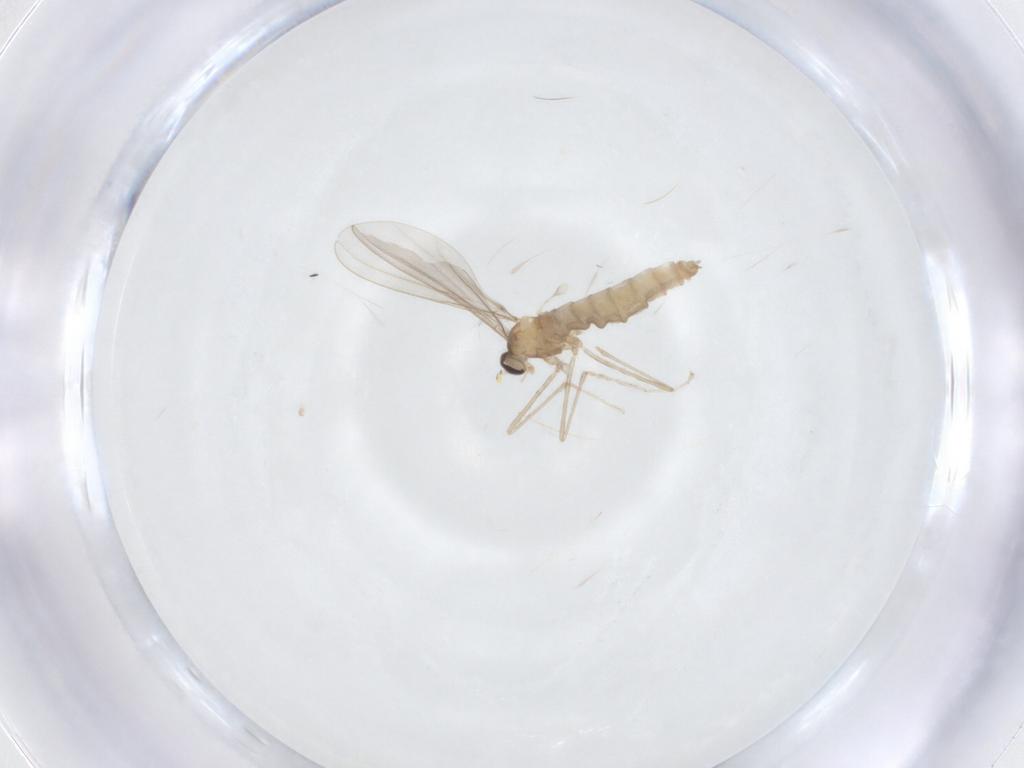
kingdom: Animalia
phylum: Arthropoda
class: Insecta
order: Diptera
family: Cecidomyiidae
